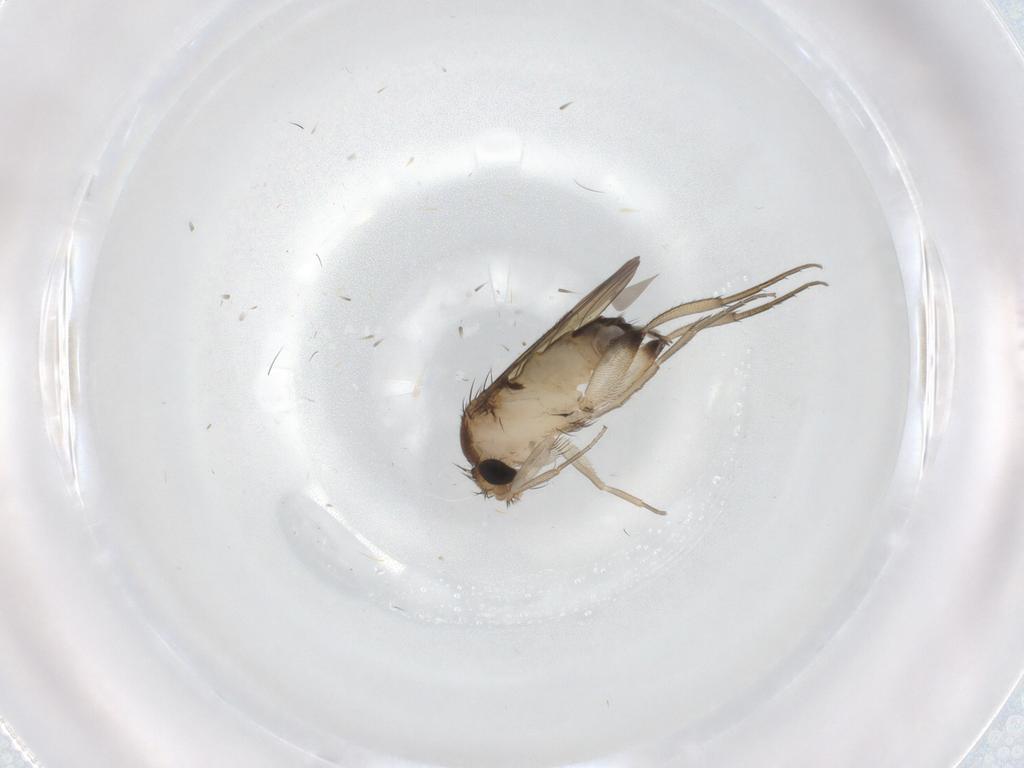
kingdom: Animalia
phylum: Arthropoda
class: Insecta
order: Diptera
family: Phoridae
